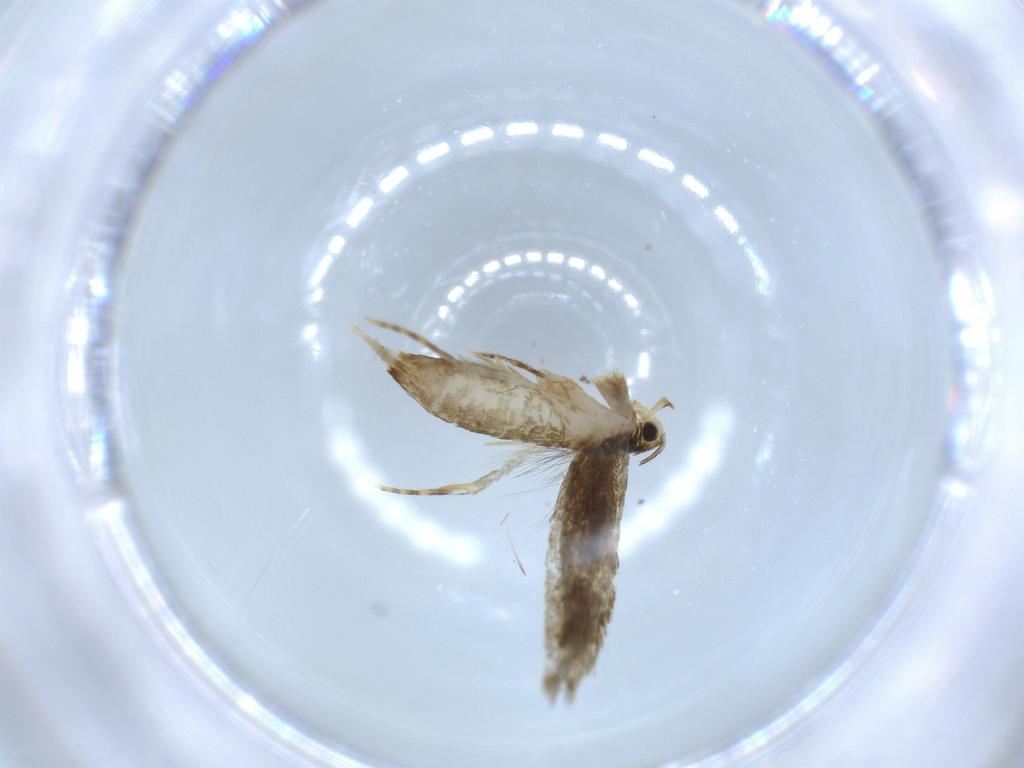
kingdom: Animalia
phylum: Arthropoda
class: Insecta
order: Lepidoptera
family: Tineidae
